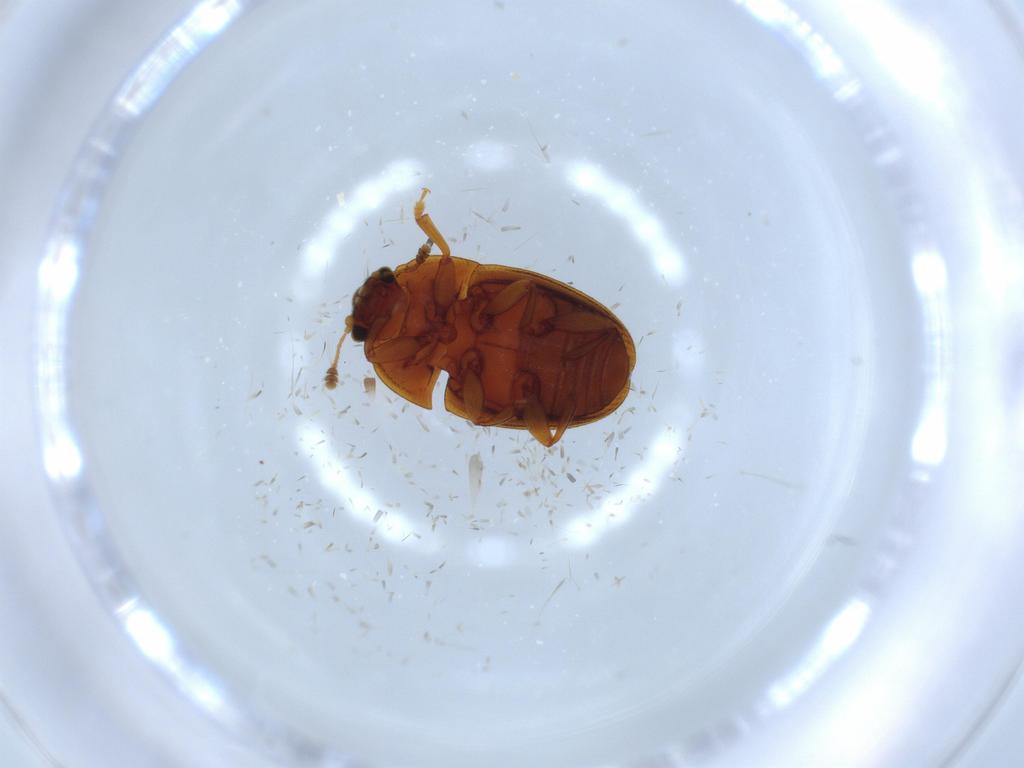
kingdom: Animalia
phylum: Arthropoda
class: Insecta
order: Coleoptera
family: Nitidulidae
